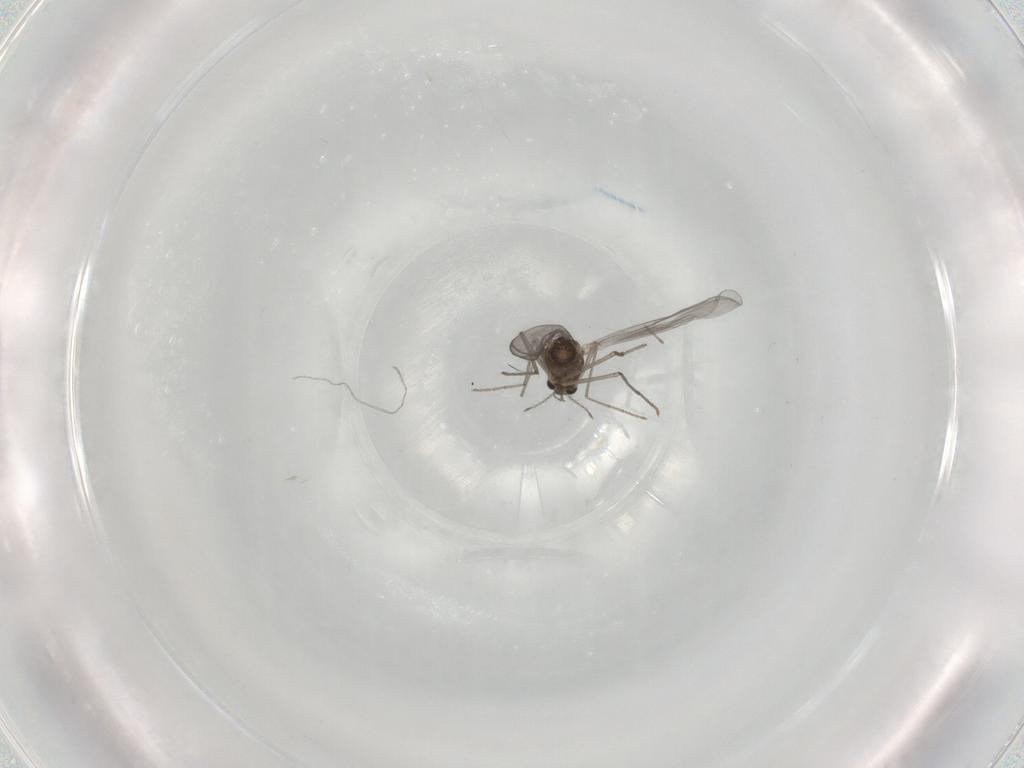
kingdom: Animalia
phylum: Arthropoda
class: Insecta
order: Diptera
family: Chironomidae
